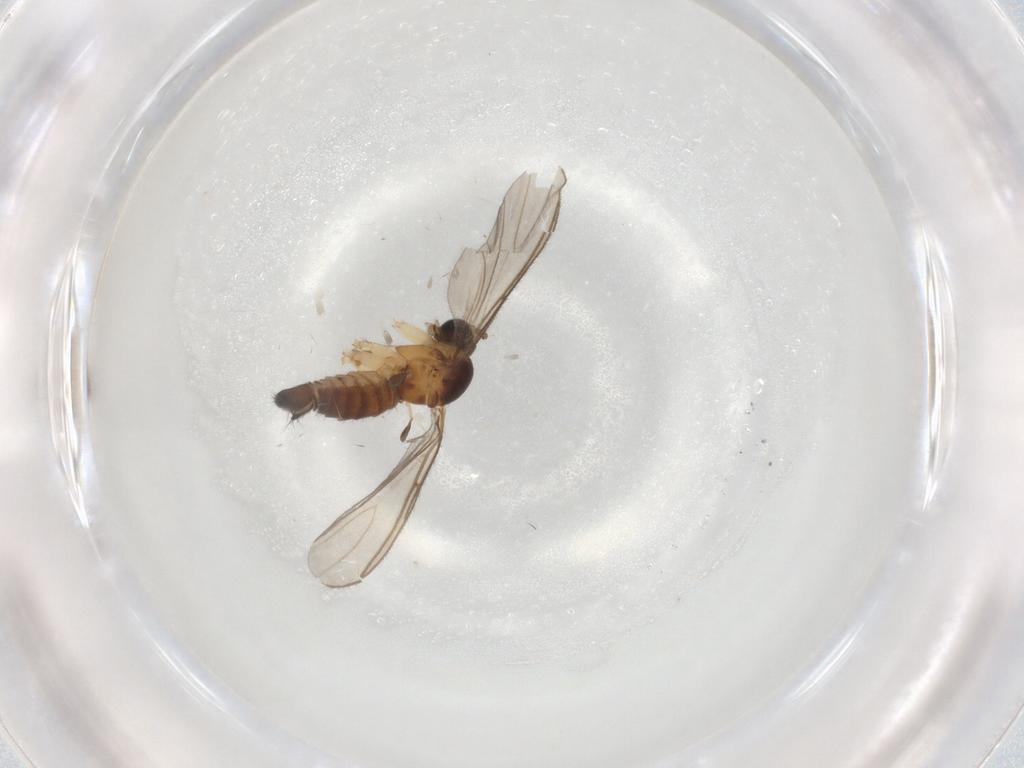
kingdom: Animalia
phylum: Arthropoda
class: Insecta
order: Diptera
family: Sciaridae
